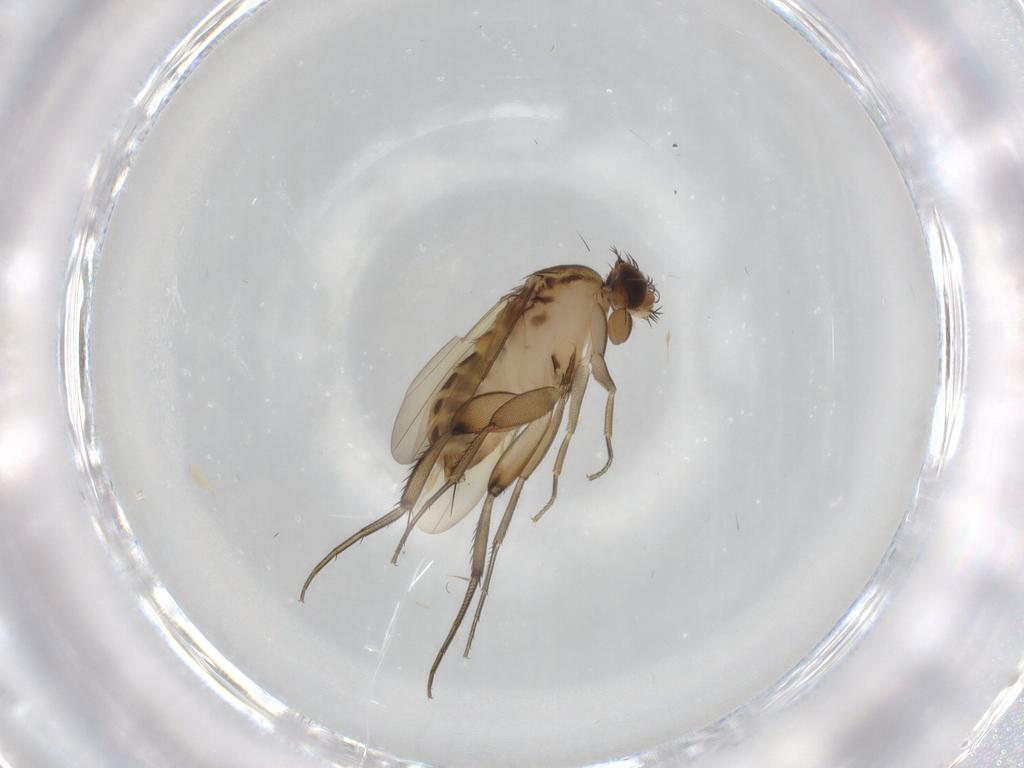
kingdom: Animalia
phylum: Arthropoda
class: Insecta
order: Diptera
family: Phoridae
